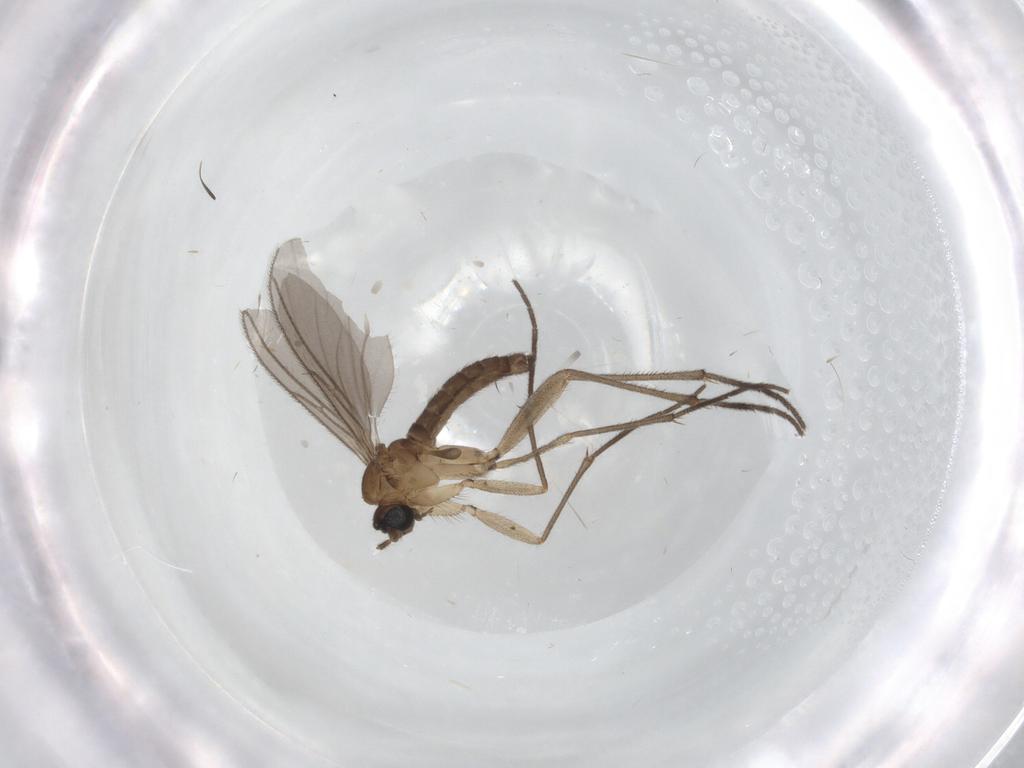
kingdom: Animalia
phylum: Arthropoda
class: Insecta
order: Diptera
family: Sciaridae
